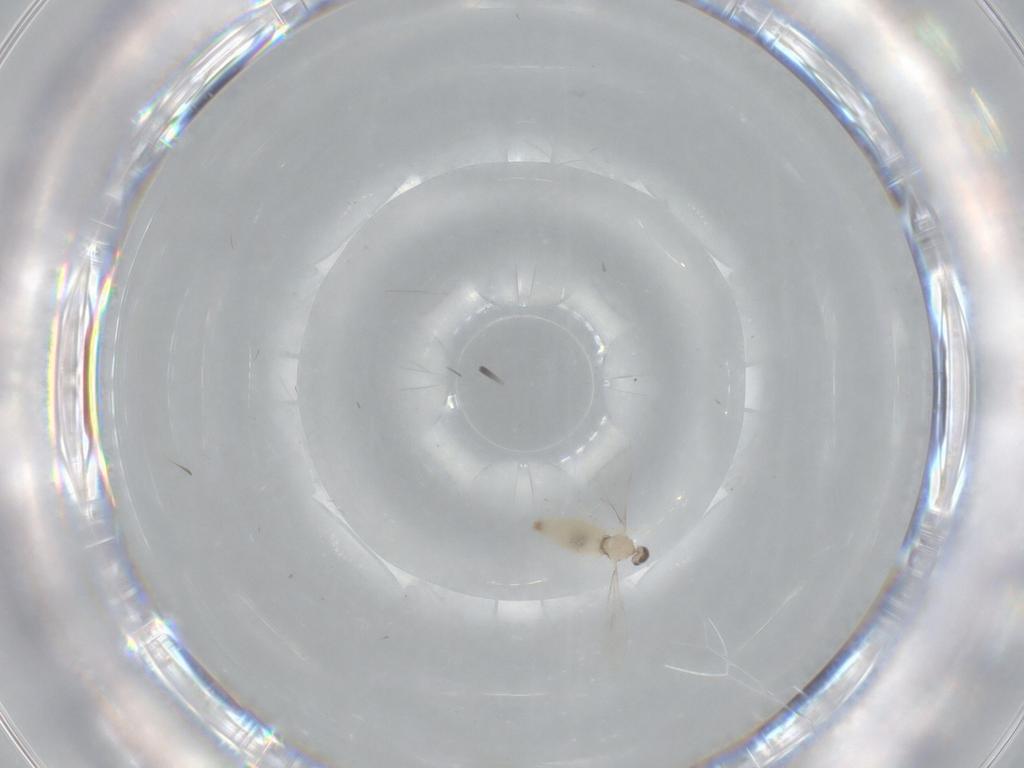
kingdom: Animalia
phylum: Arthropoda
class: Insecta
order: Diptera
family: Cecidomyiidae
